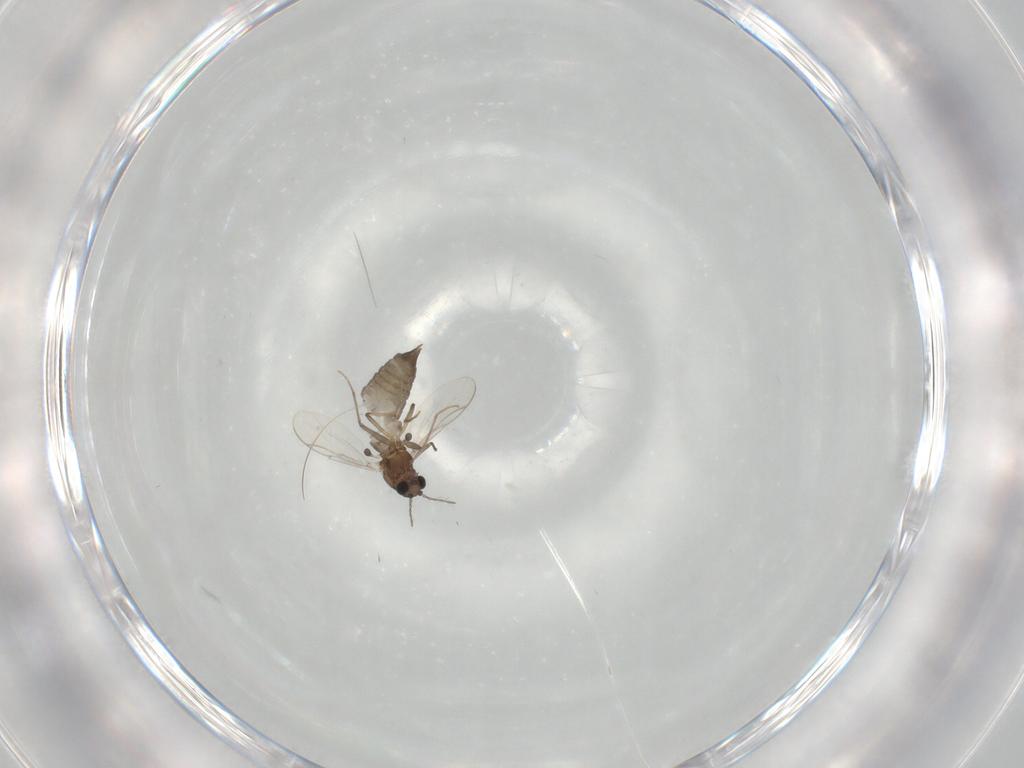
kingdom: Animalia
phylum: Arthropoda
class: Insecta
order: Diptera
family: Chironomidae
